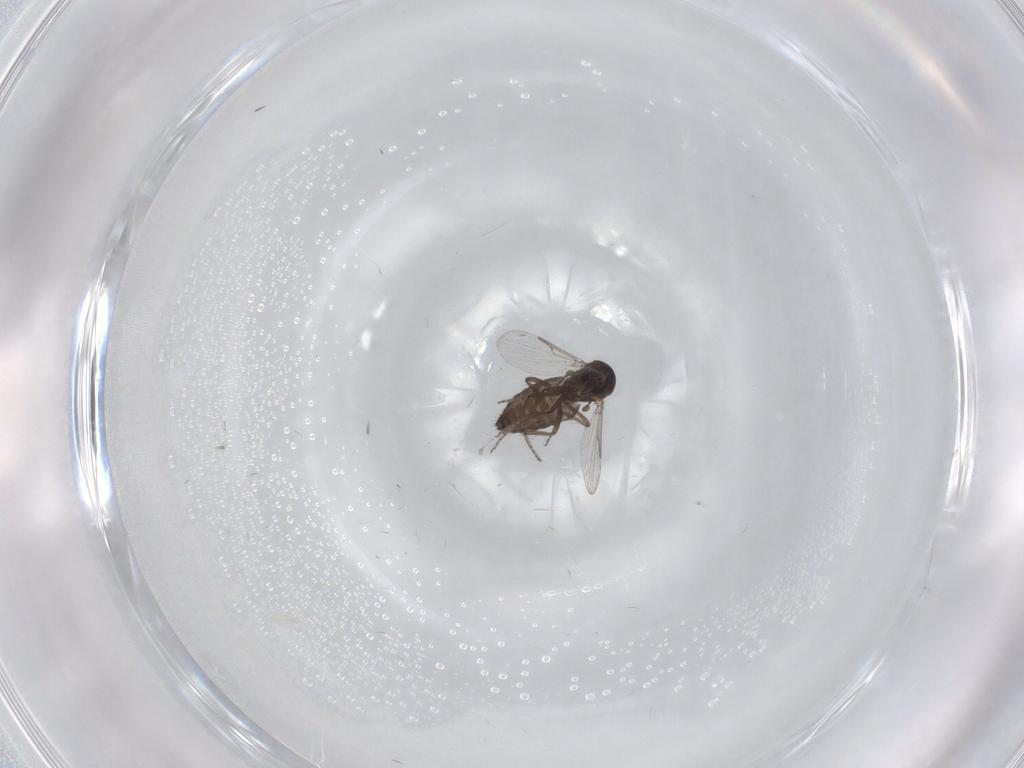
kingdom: Animalia
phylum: Arthropoda
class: Insecta
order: Diptera
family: Ceratopogonidae
